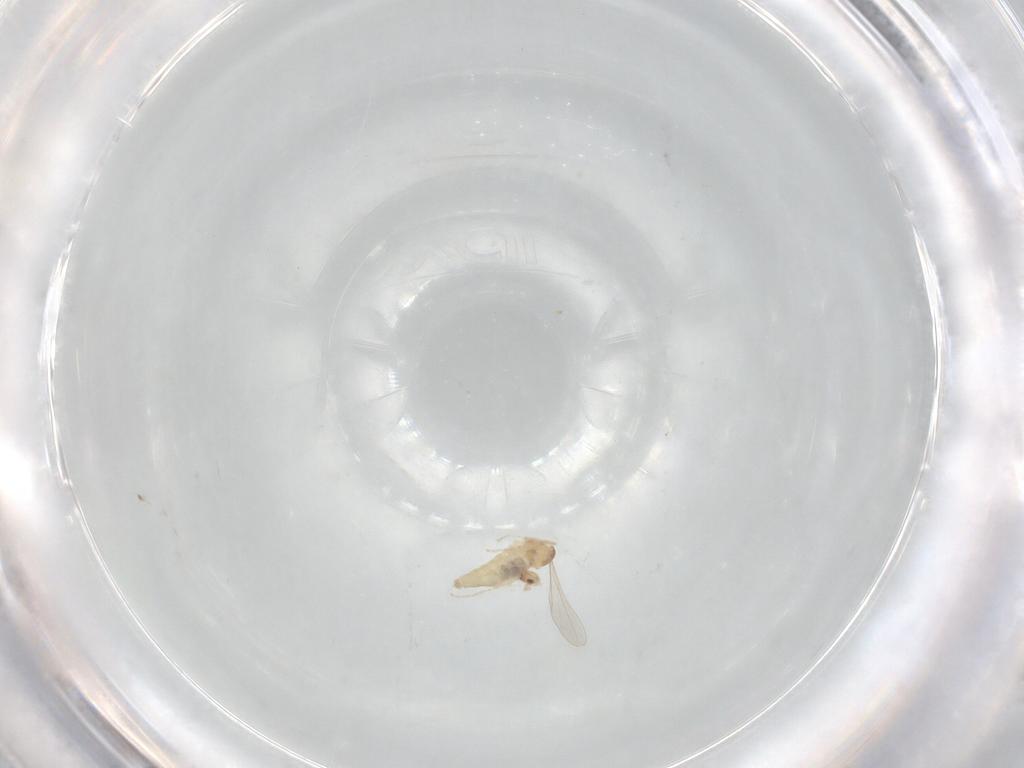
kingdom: Animalia
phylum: Arthropoda
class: Insecta
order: Diptera
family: Cecidomyiidae
